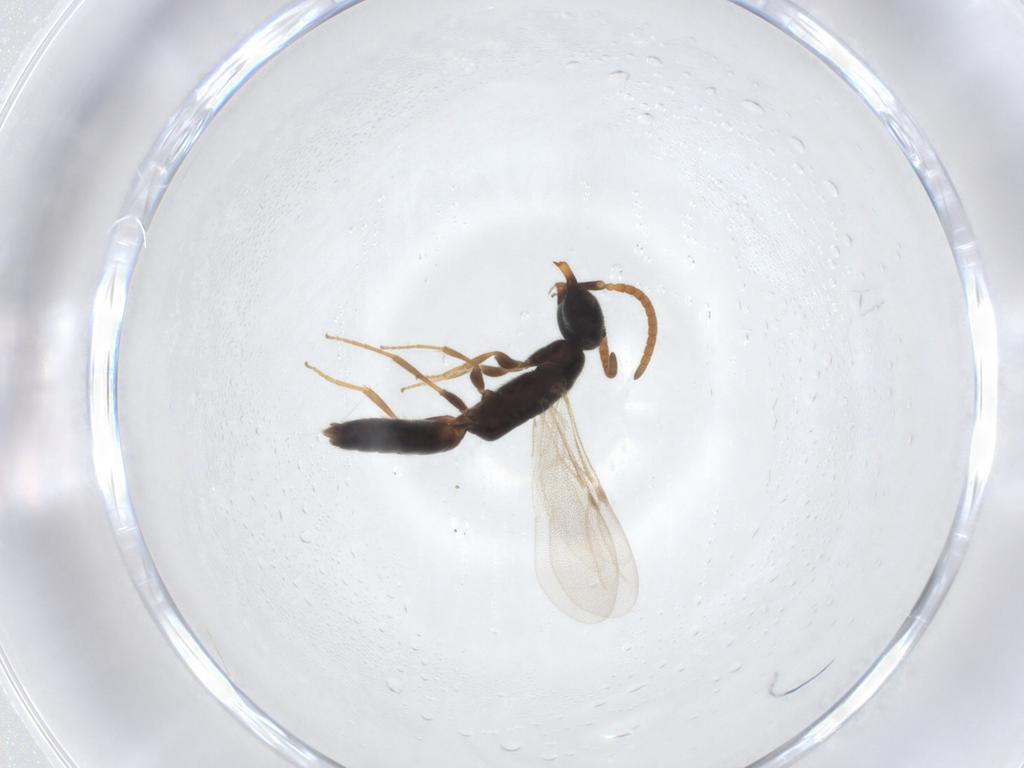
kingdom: Animalia
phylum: Arthropoda
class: Insecta
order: Hymenoptera
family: Bethylidae
